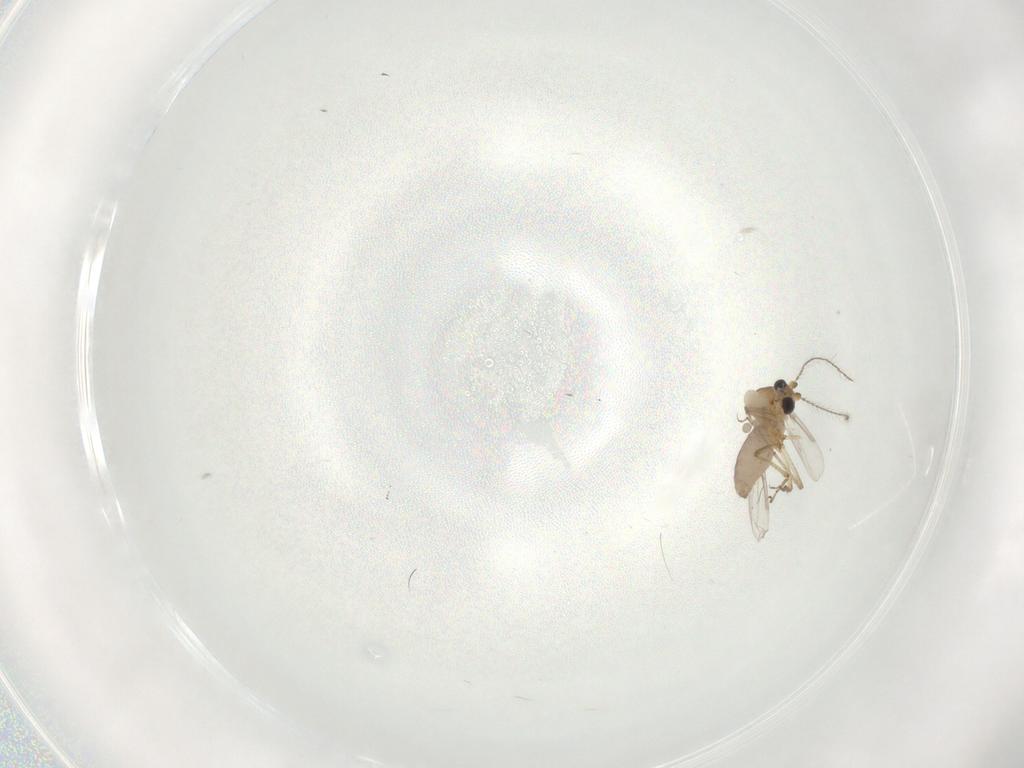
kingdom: Animalia
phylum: Arthropoda
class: Insecta
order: Diptera
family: Ceratopogonidae
